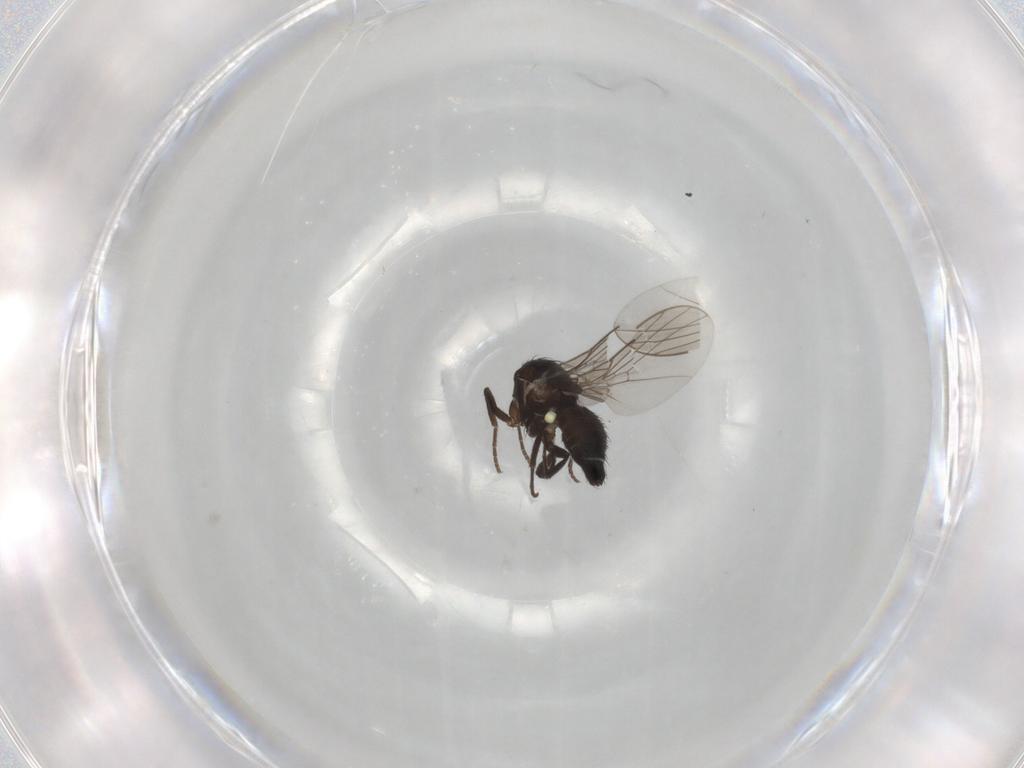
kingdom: Animalia
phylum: Arthropoda
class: Insecta
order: Diptera
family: Agromyzidae
